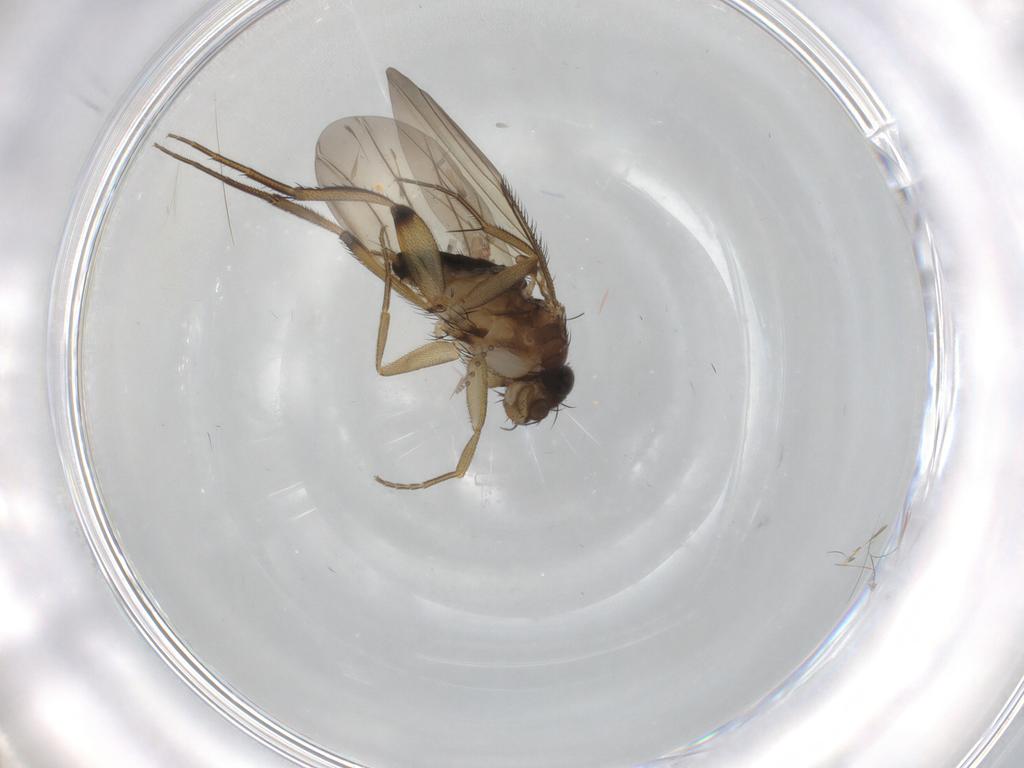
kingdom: Animalia
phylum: Arthropoda
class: Insecta
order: Diptera
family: Phoridae
